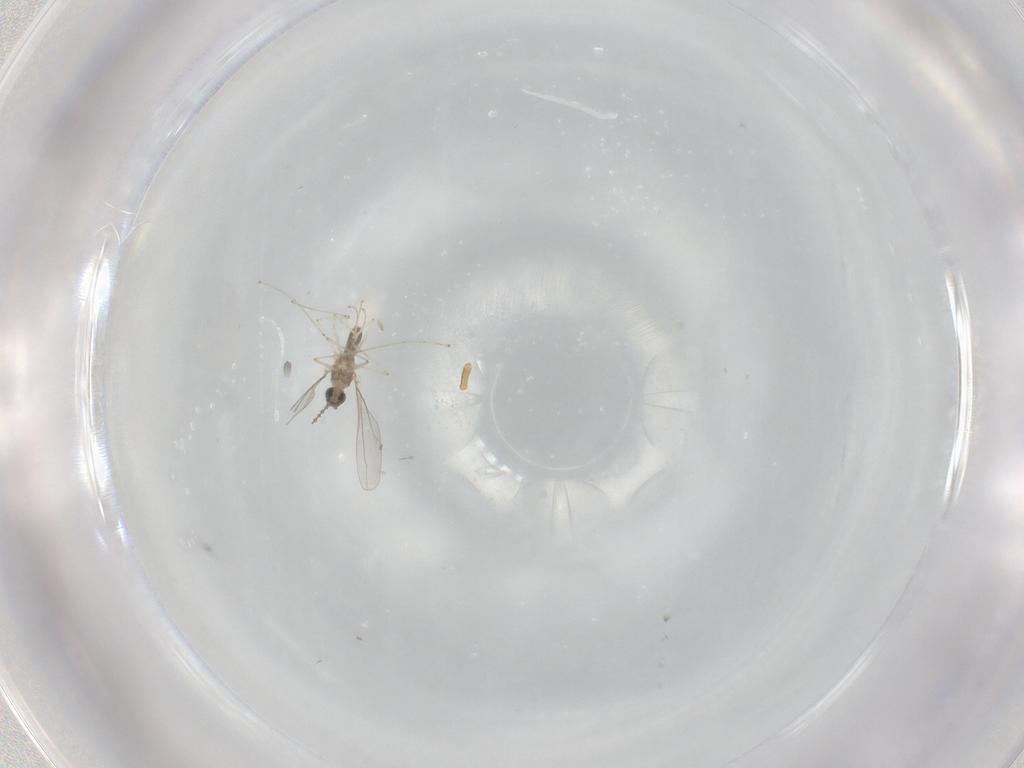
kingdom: Animalia
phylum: Arthropoda
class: Insecta
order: Diptera
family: Cecidomyiidae
